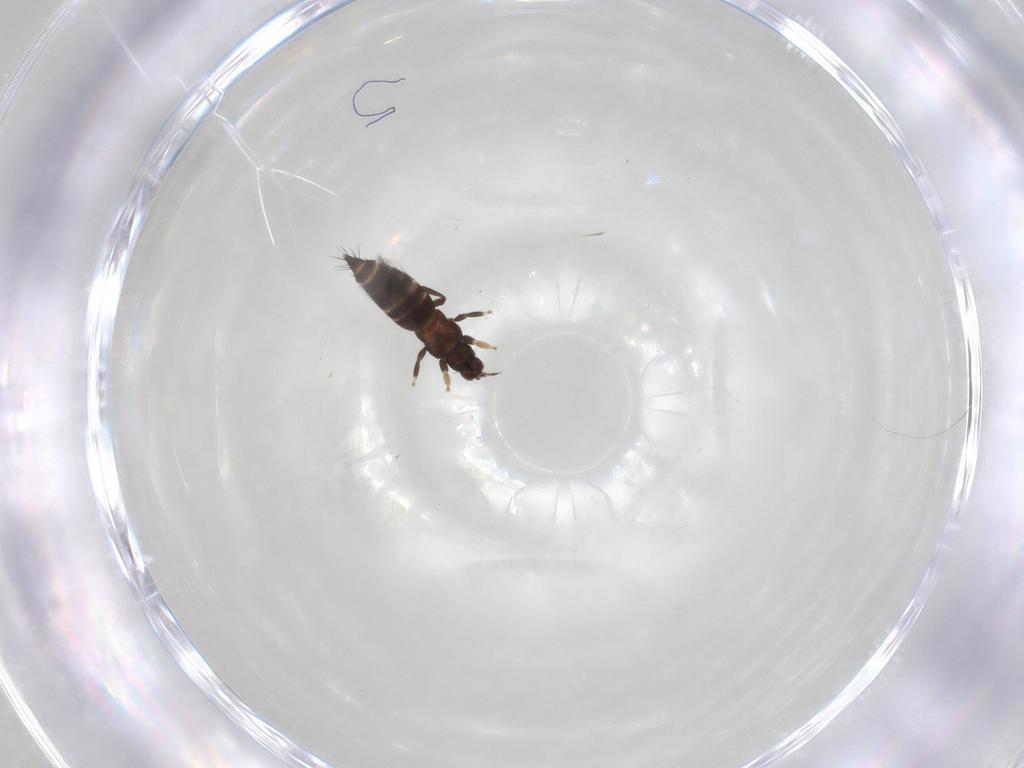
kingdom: Animalia
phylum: Arthropoda
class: Insecta
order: Thysanoptera
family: Thripidae
